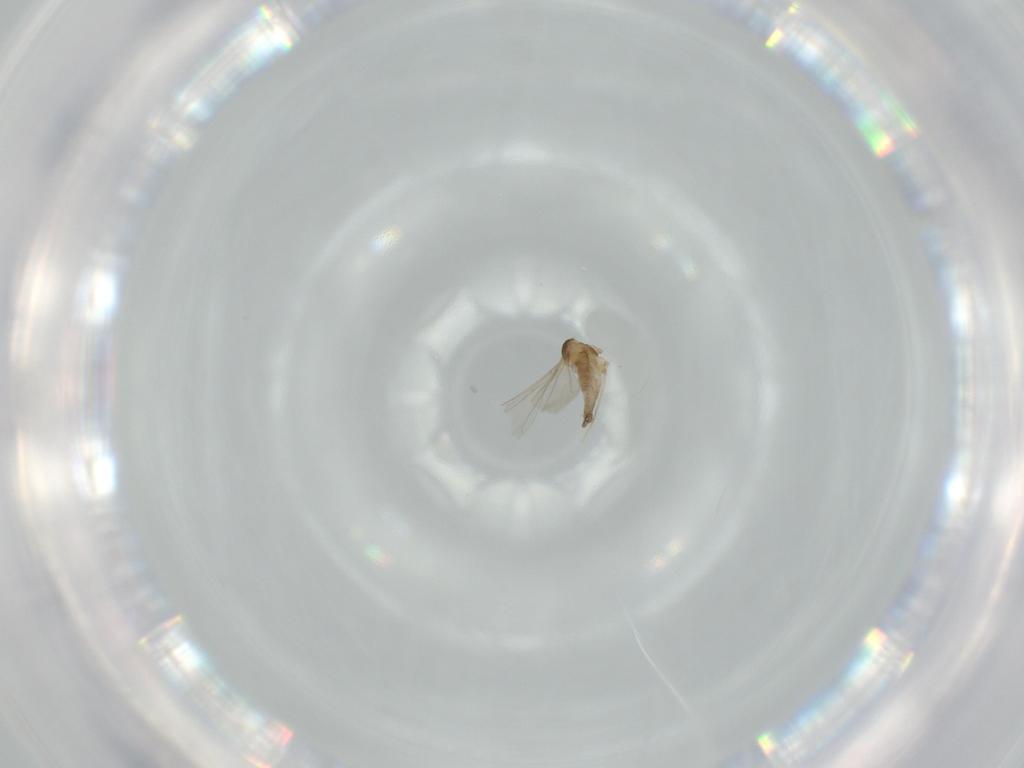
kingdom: Animalia
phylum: Arthropoda
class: Insecta
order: Diptera
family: Cecidomyiidae
